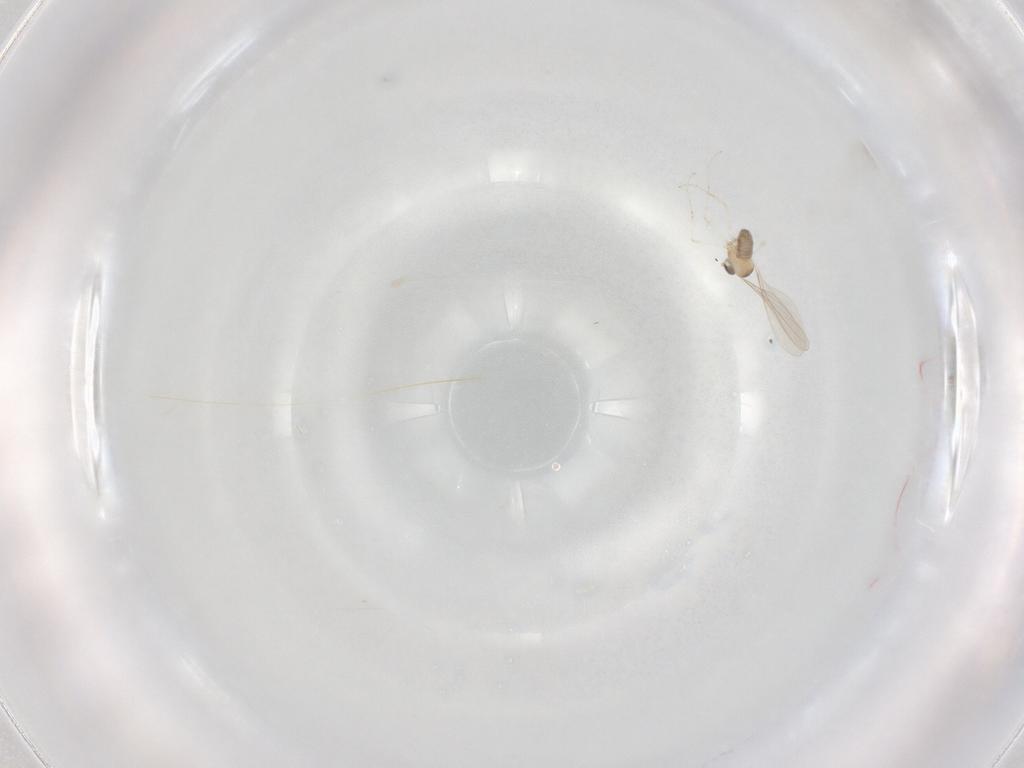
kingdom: Animalia
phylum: Arthropoda
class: Insecta
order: Diptera
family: Cecidomyiidae
